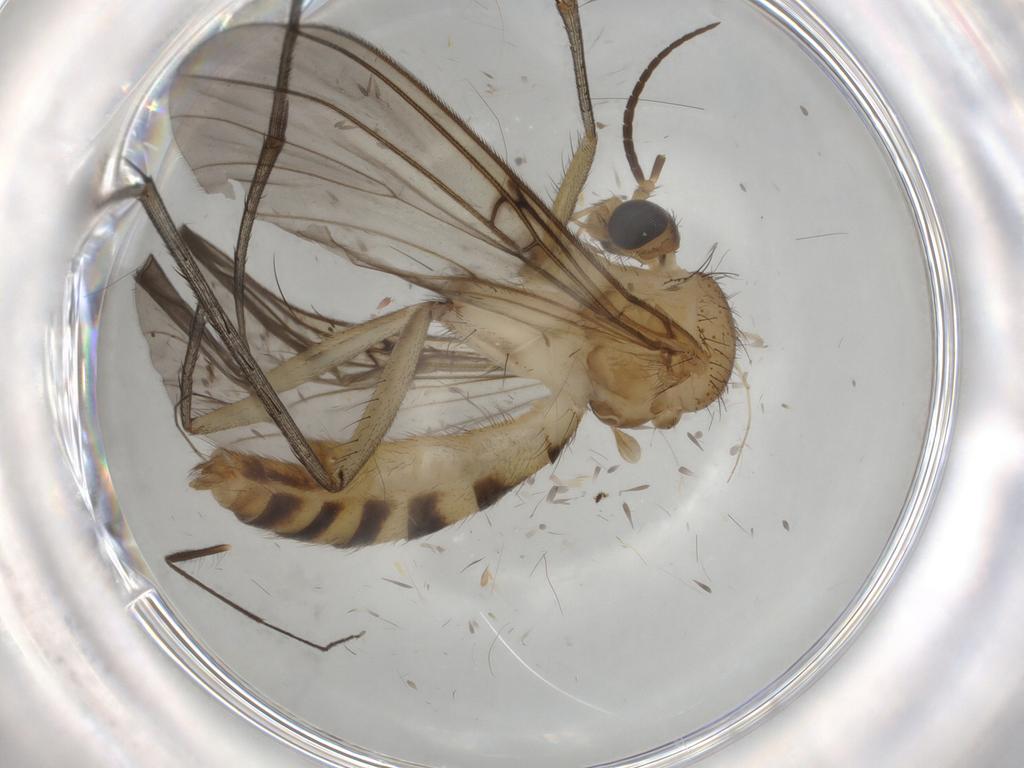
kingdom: Animalia
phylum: Arthropoda
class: Insecta
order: Diptera
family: Mycetophilidae
